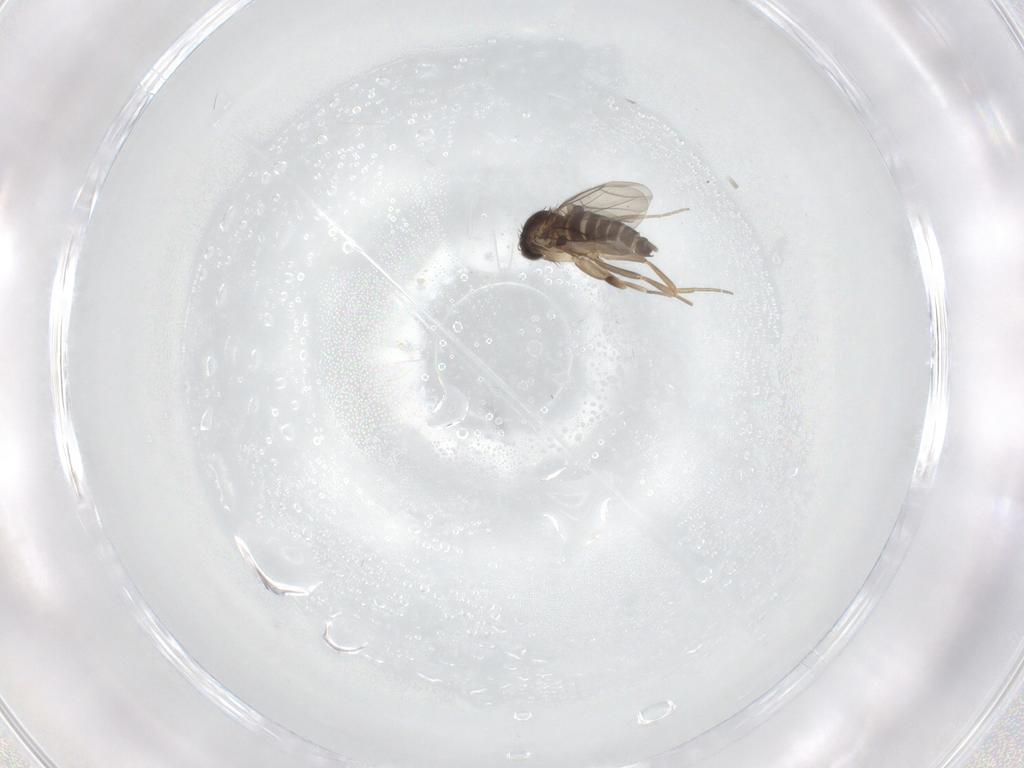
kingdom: Animalia
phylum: Arthropoda
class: Insecta
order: Diptera
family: Phoridae
